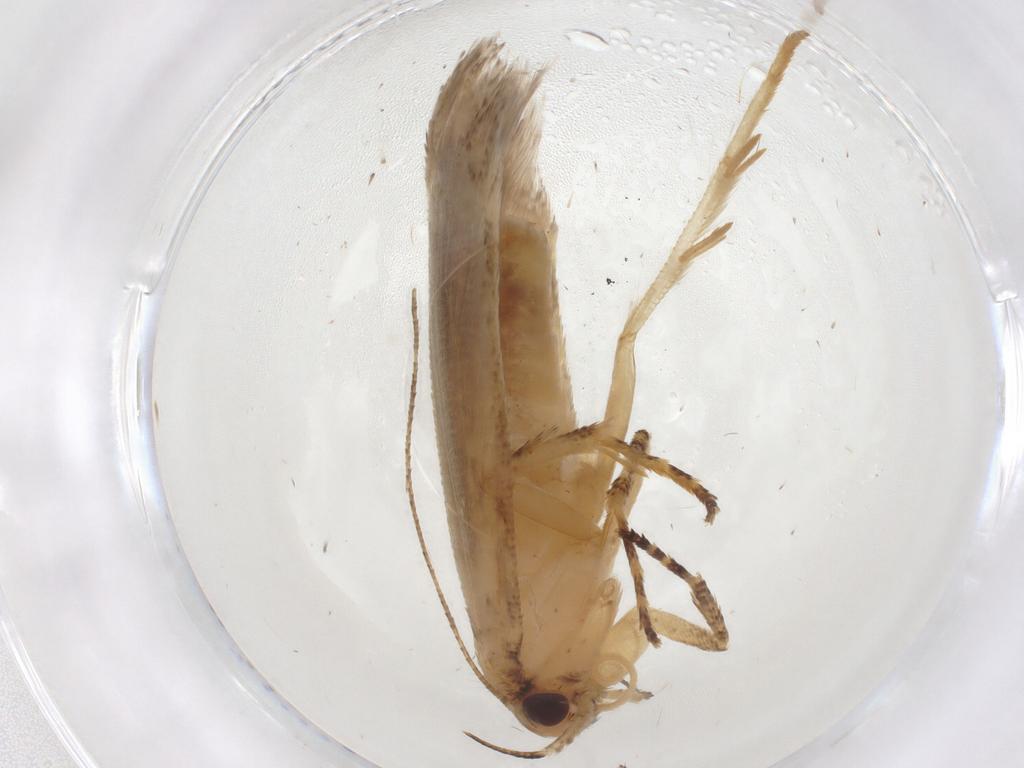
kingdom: Animalia
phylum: Arthropoda
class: Insecta
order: Lepidoptera
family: Gelechiidae
